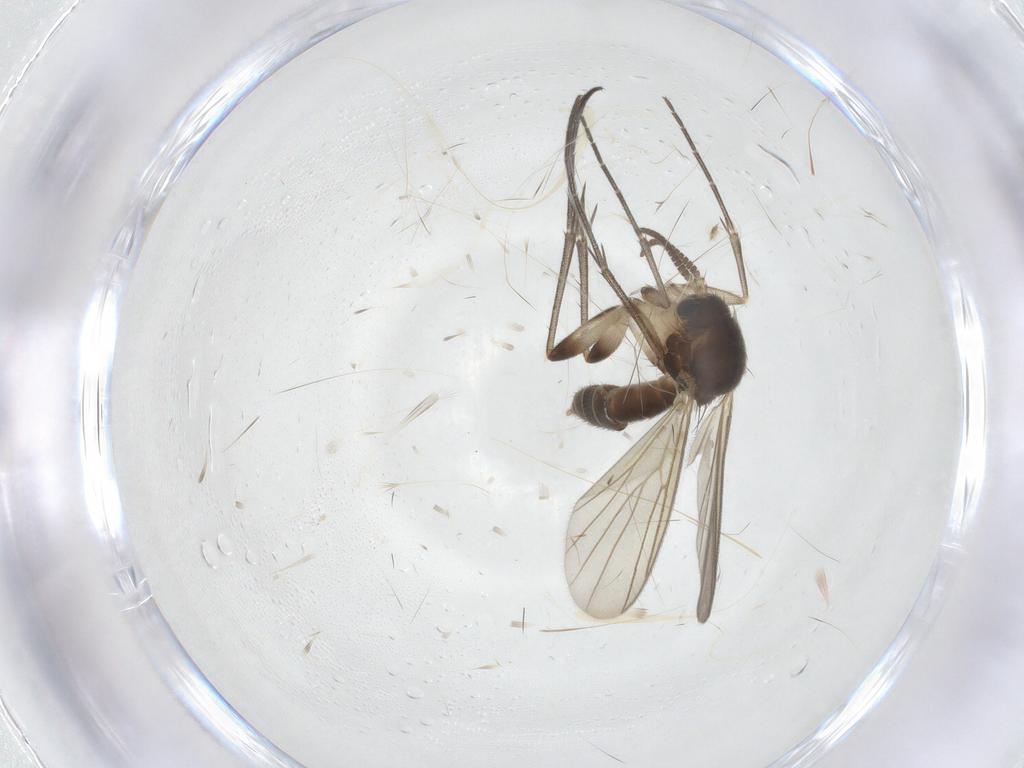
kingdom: Animalia
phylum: Arthropoda
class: Insecta
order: Diptera
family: Mycetophilidae
